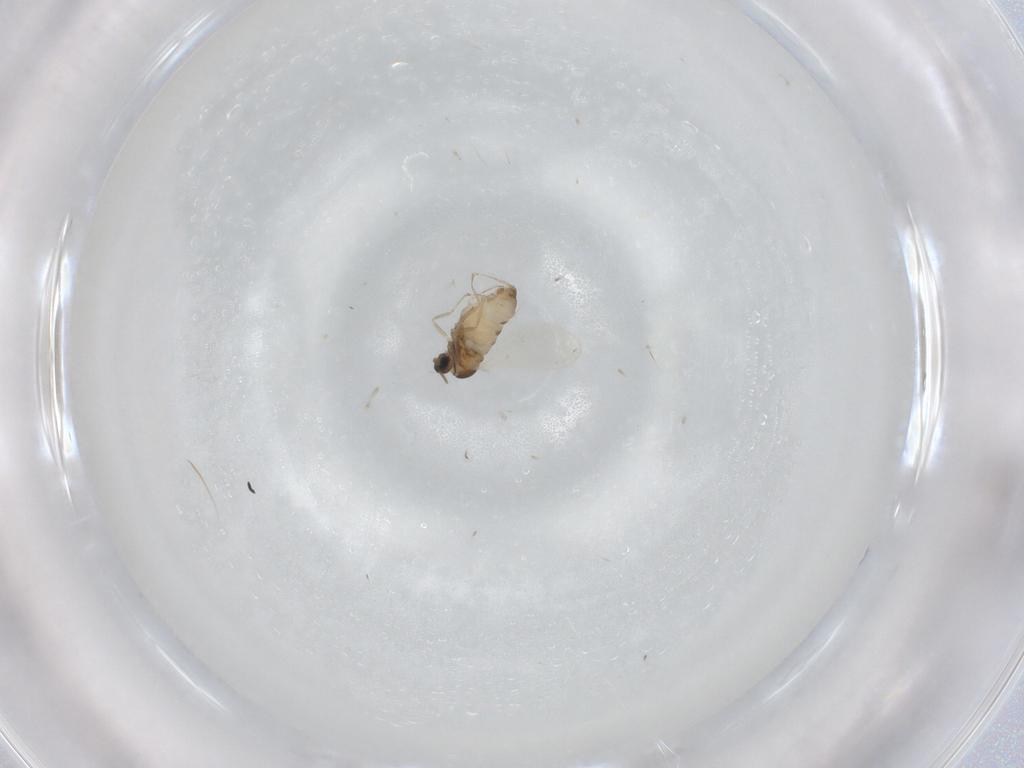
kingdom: Animalia
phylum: Arthropoda
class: Insecta
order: Diptera
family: Cecidomyiidae
